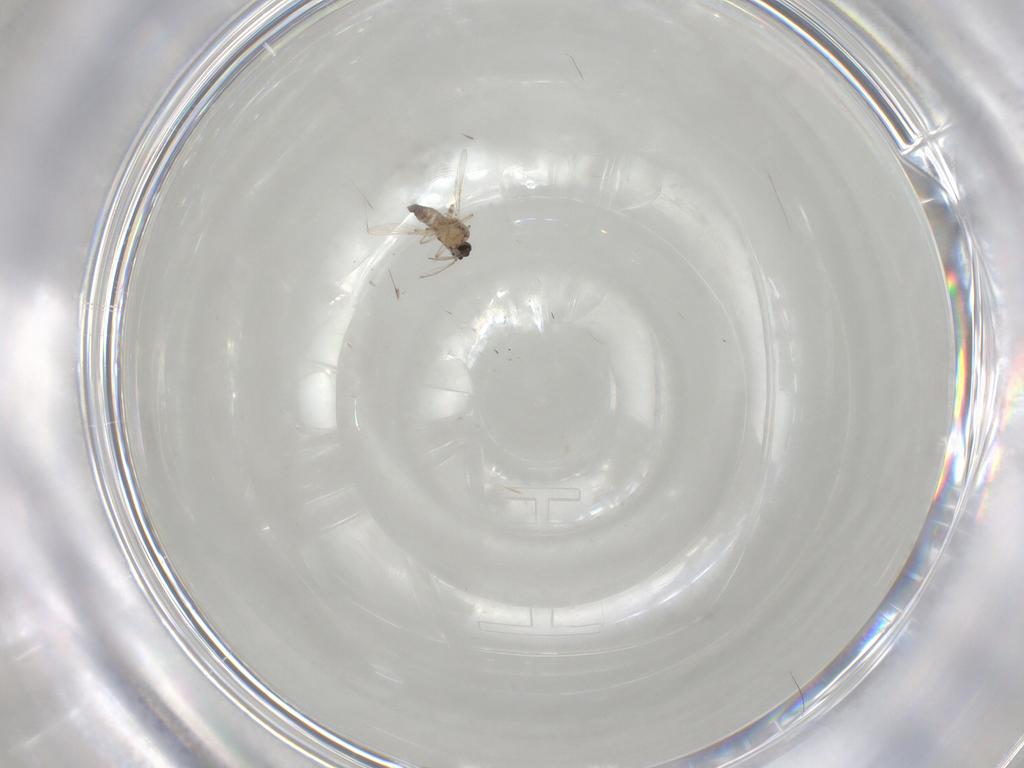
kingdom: Animalia
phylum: Arthropoda
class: Insecta
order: Diptera
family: Ceratopogonidae
